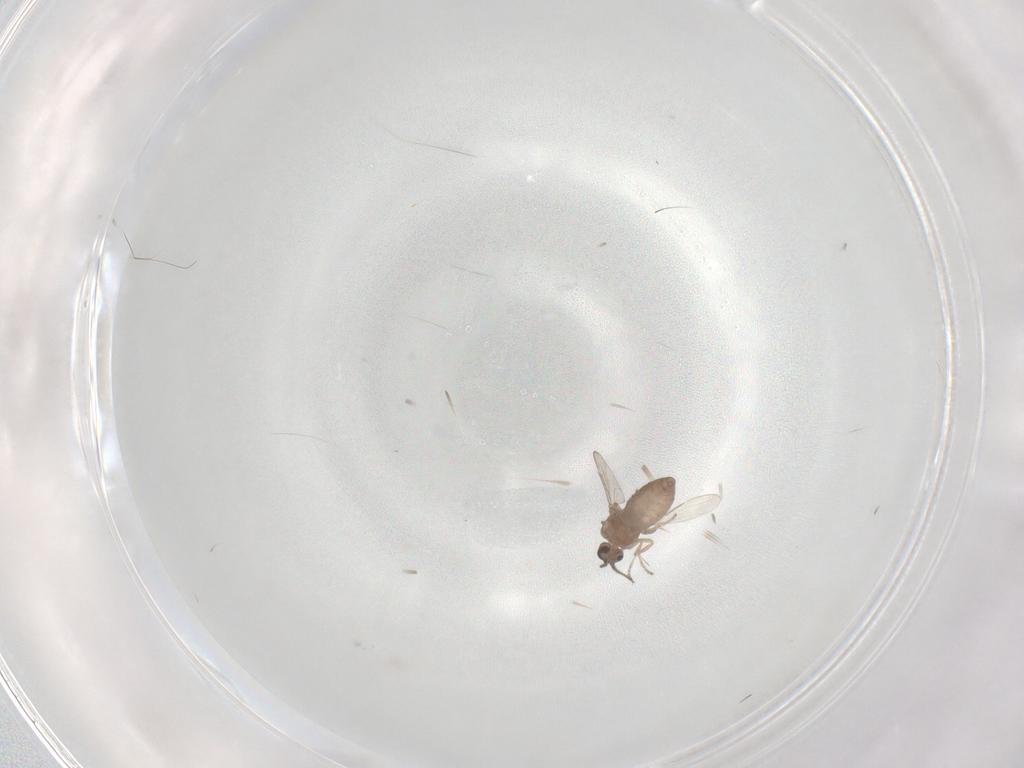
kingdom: Animalia
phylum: Arthropoda
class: Insecta
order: Diptera
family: Ceratopogonidae
